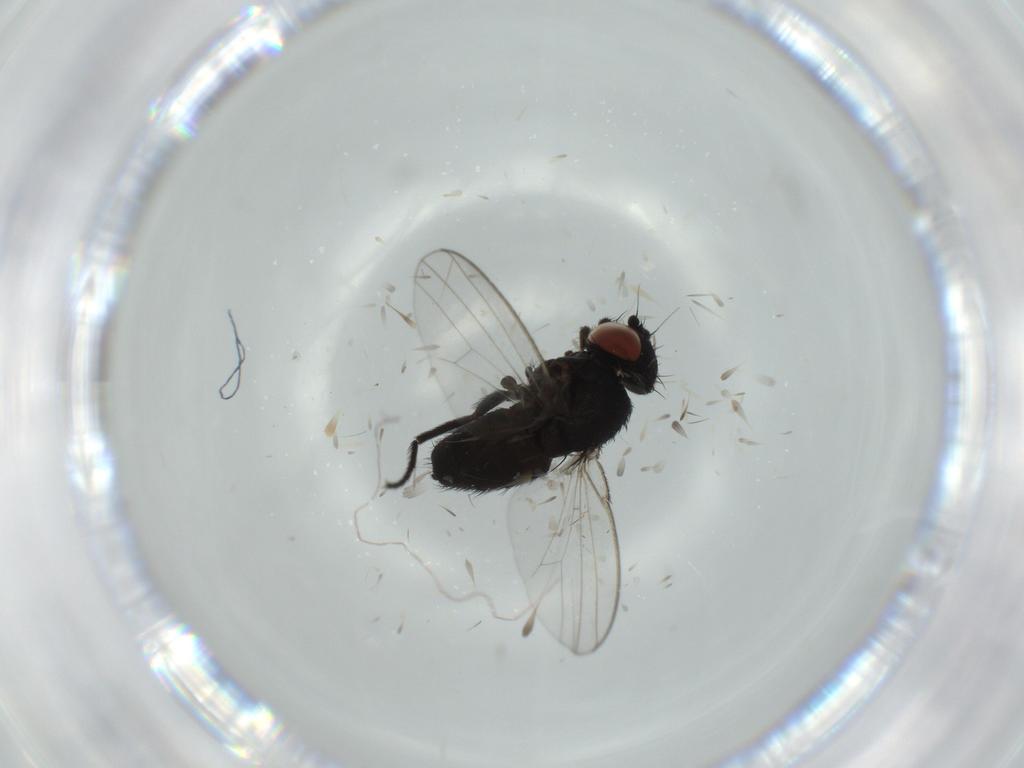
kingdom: Animalia
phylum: Arthropoda
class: Insecta
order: Diptera
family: Milichiidae
